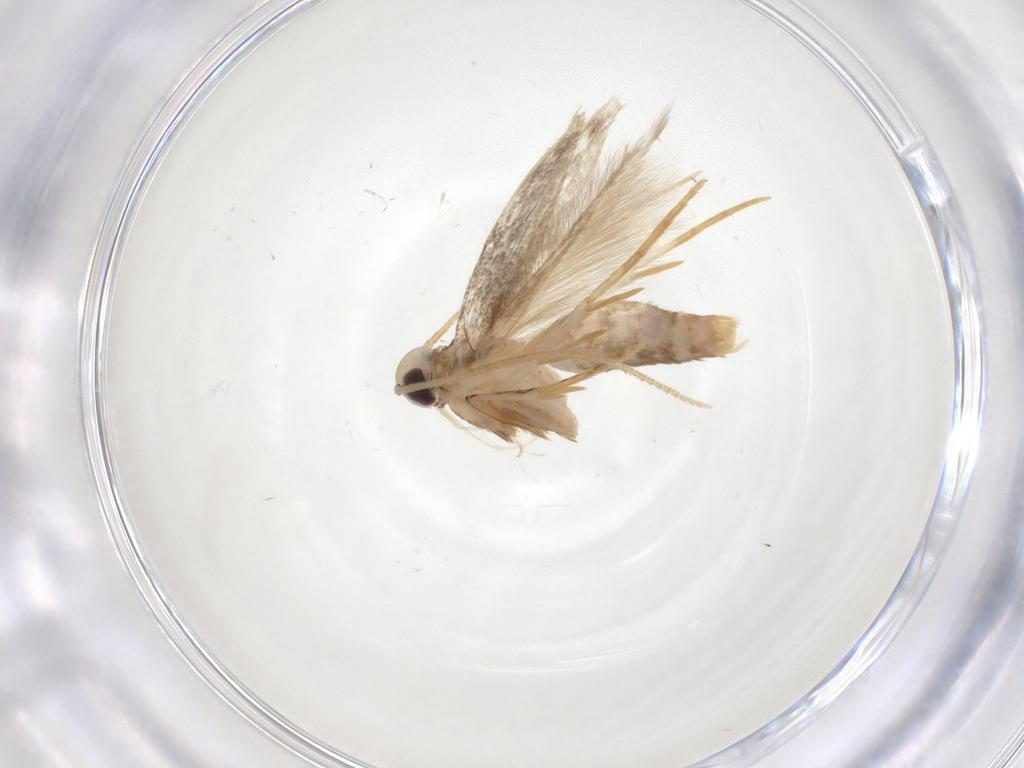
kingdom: Animalia
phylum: Arthropoda
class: Insecta
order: Lepidoptera
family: Coleophoridae
